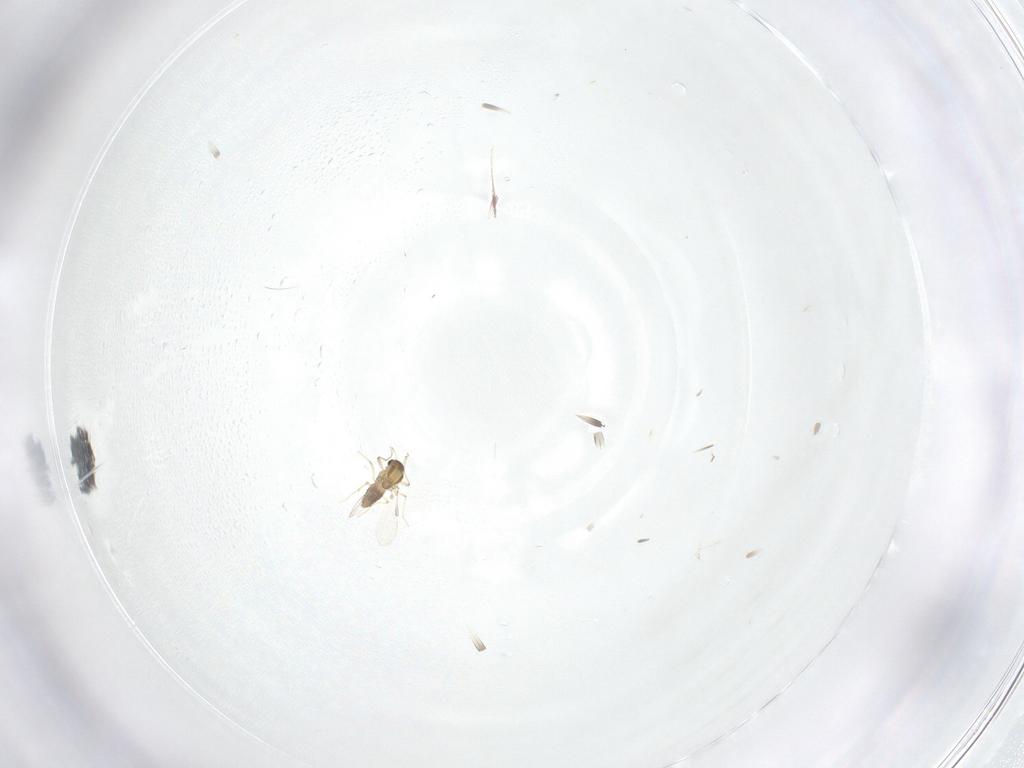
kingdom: Animalia
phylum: Arthropoda
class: Insecta
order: Diptera
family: Chironomidae
